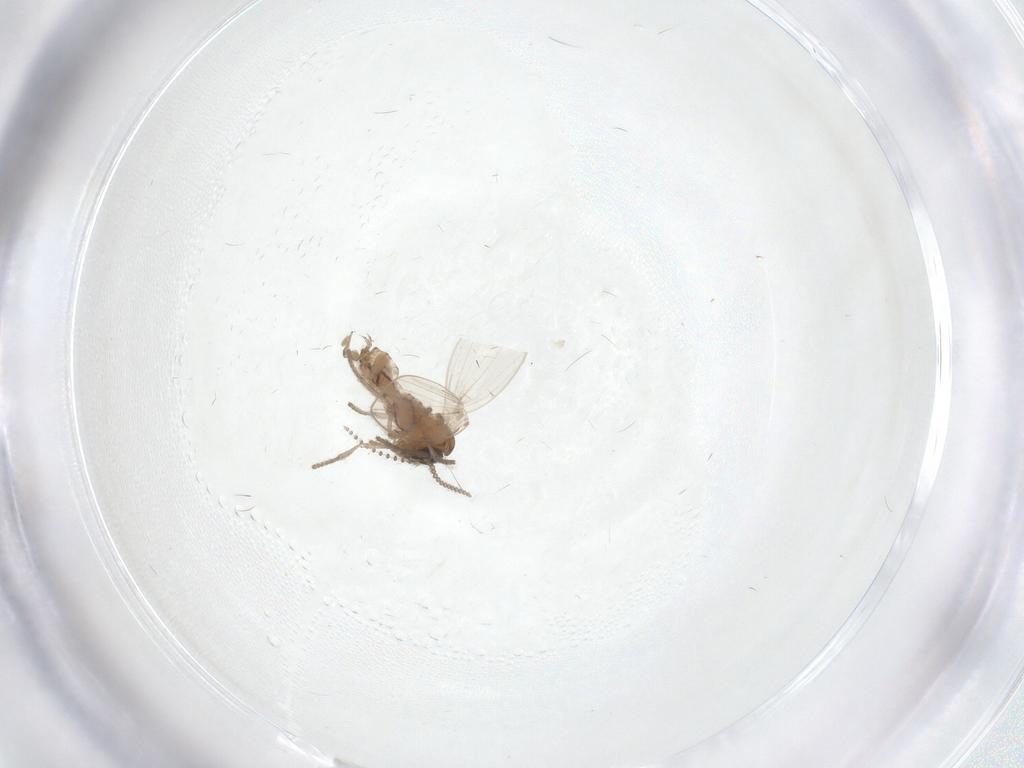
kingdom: Animalia
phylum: Arthropoda
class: Insecta
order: Diptera
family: Psychodidae
